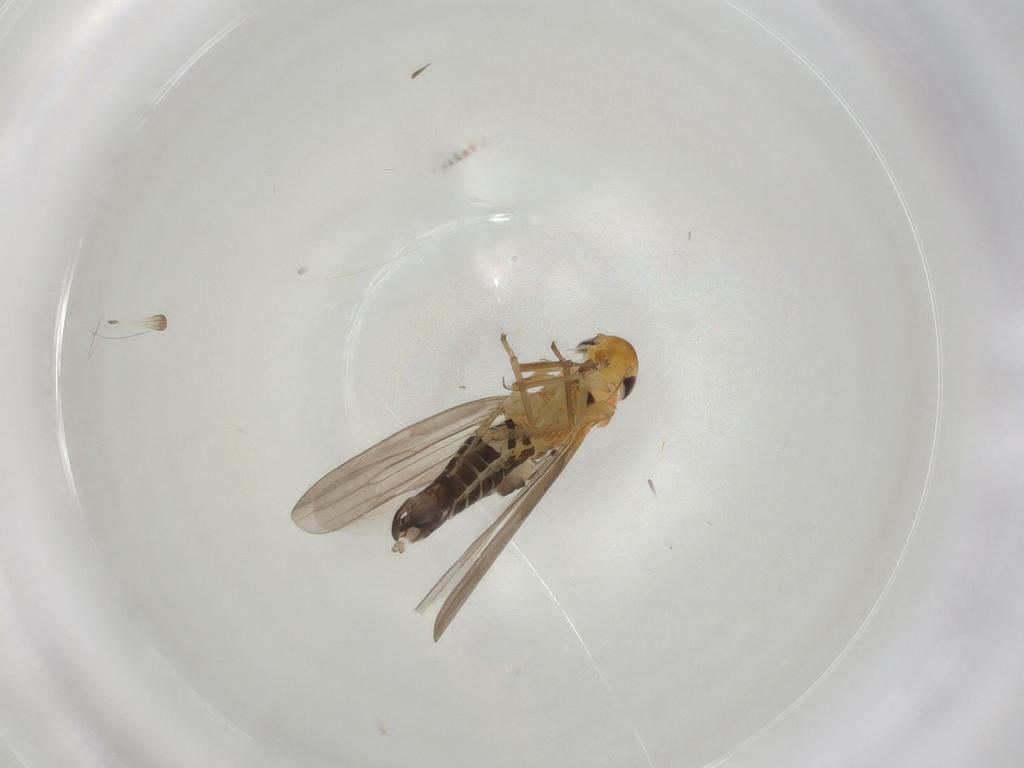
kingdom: Animalia
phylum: Arthropoda
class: Insecta
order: Hemiptera
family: Cicadellidae
